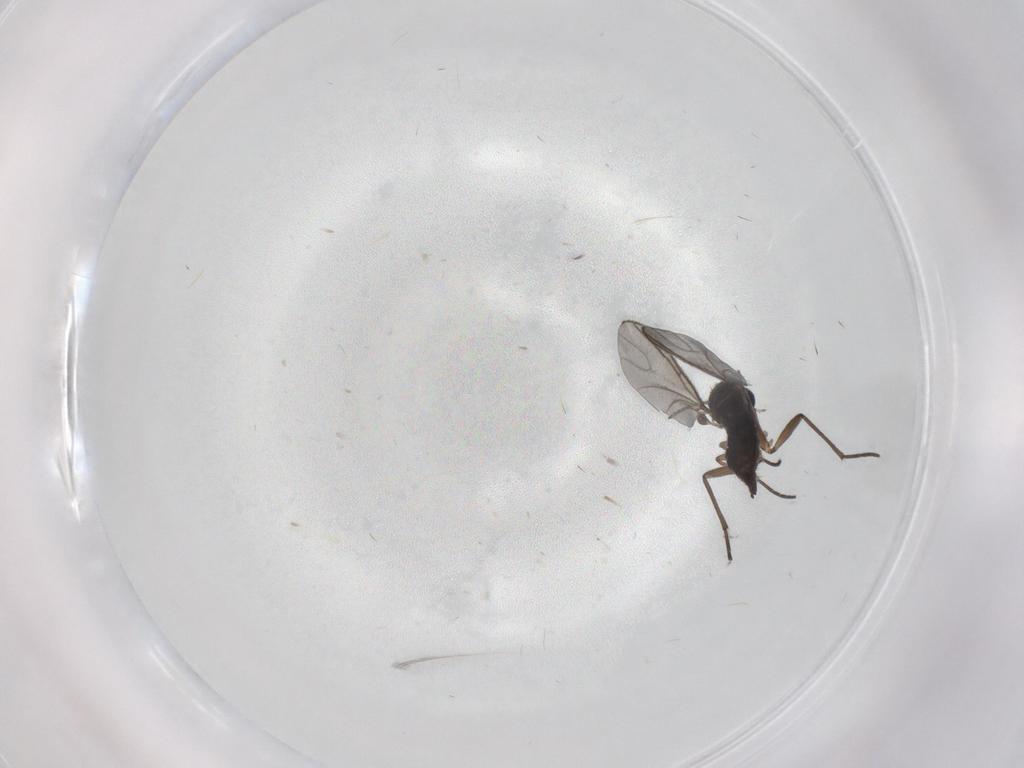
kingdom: Animalia
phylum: Arthropoda
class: Insecta
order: Diptera
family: Sciaridae
